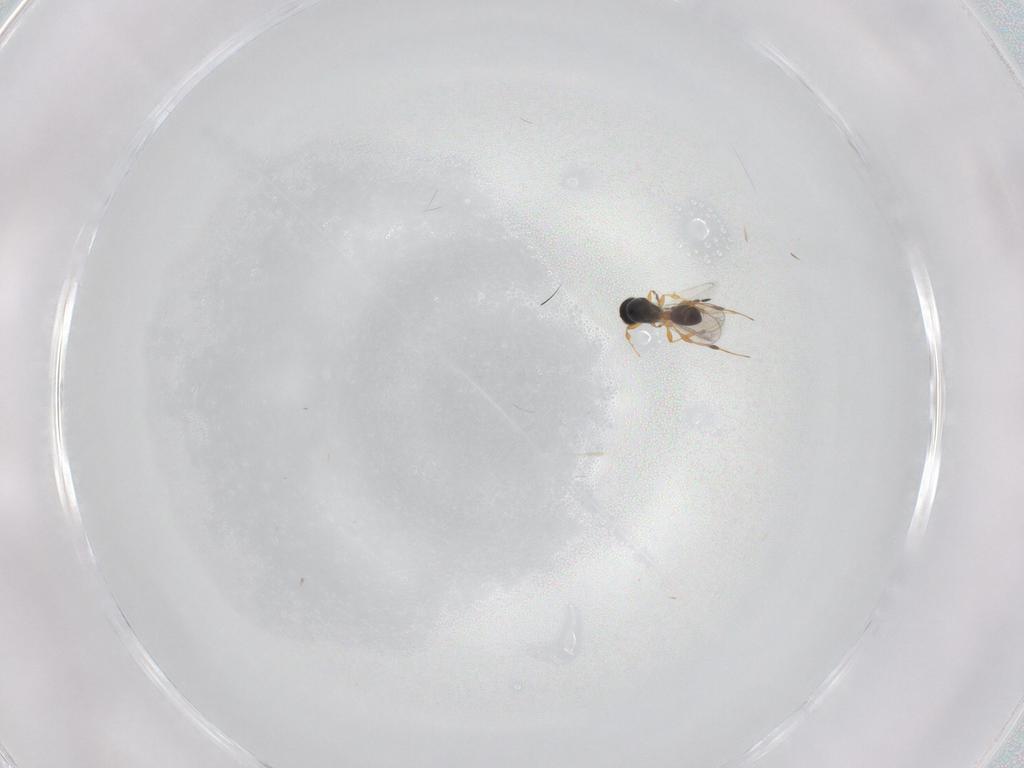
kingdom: Animalia
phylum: Arthropoda
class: Insecta
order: Hymenoptera
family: Platygastridae
